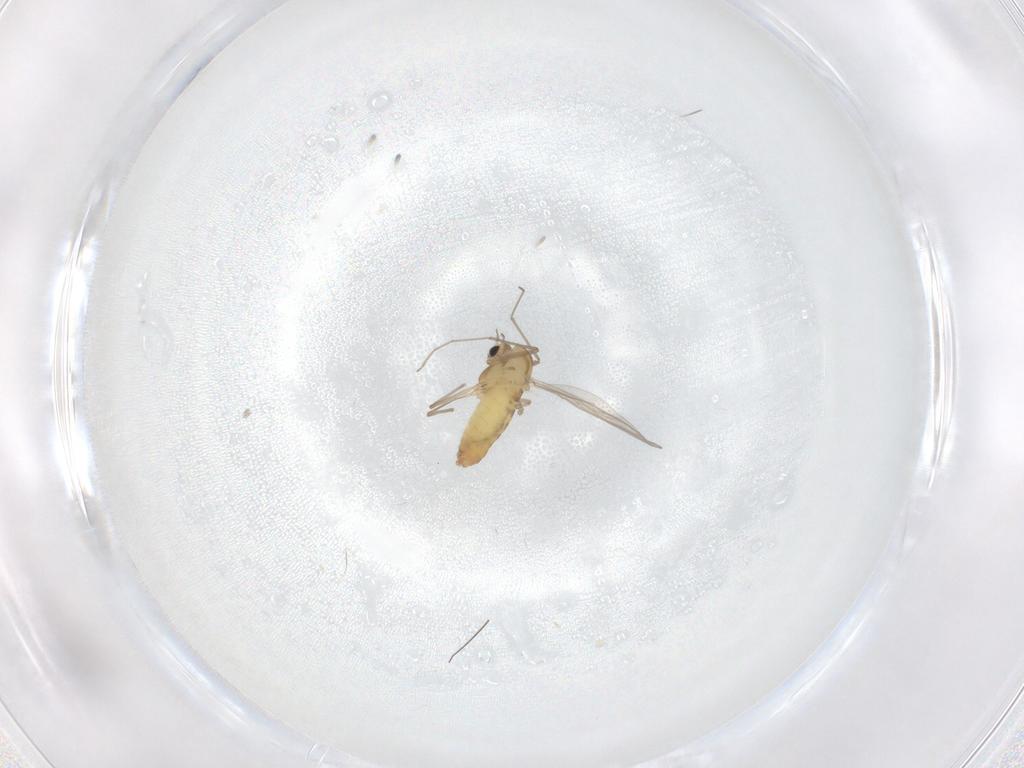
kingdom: Animalia
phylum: Arthropoda
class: Insecta
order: Diptera
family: Chironomidae
